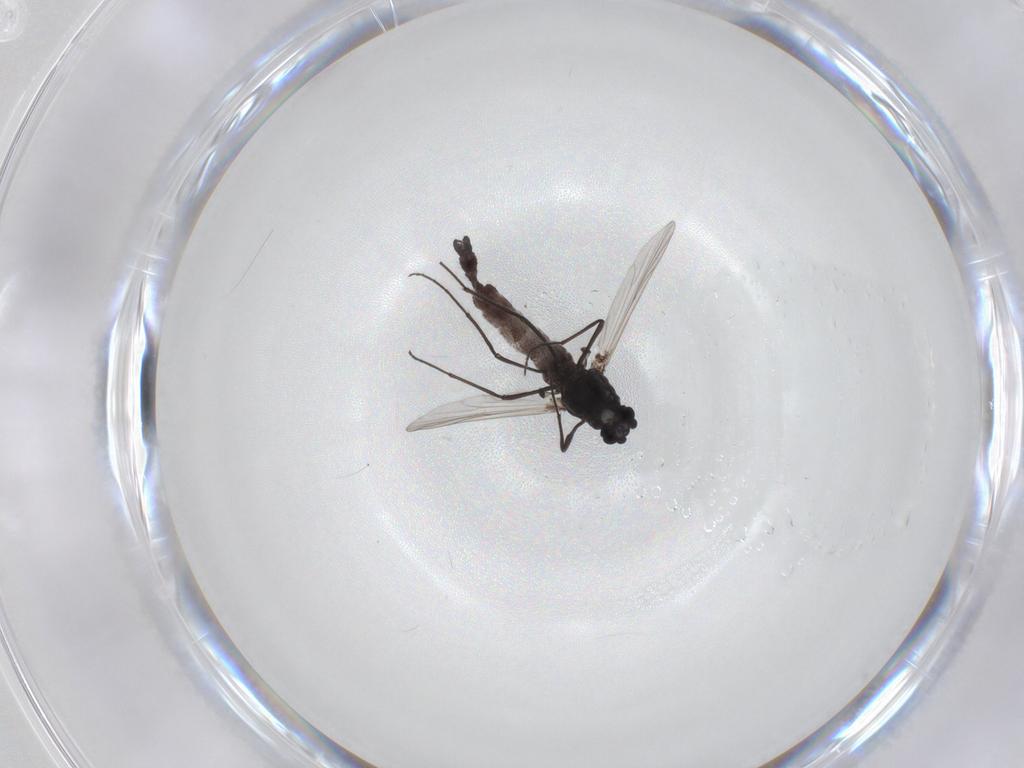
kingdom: Animalia
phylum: Arthropoda
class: Insecta
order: Diptera
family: Chironomidae
